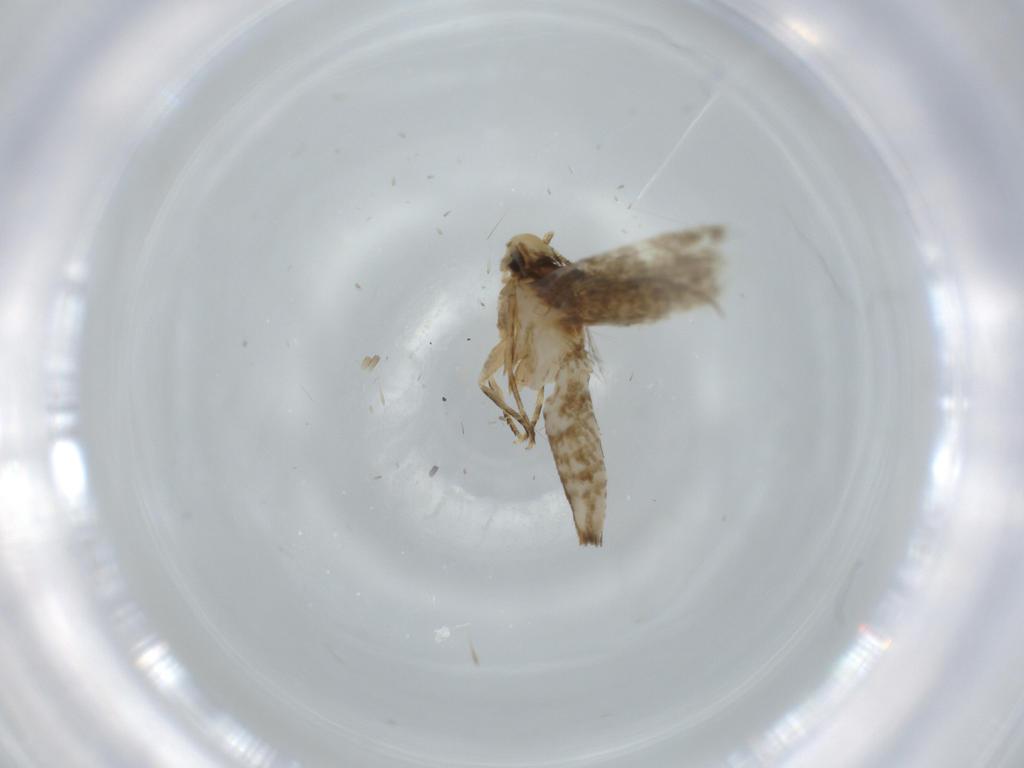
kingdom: Animalia
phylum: Arthropoda
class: Insecta
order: Lepidoptera
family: Tineidae
